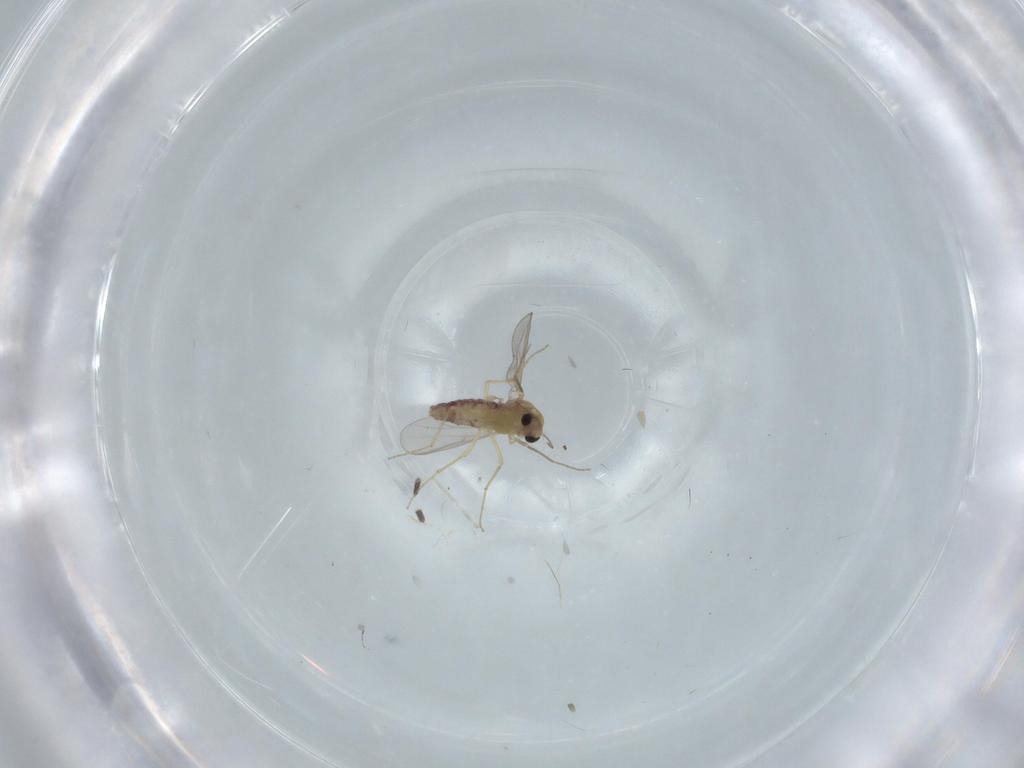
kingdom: Animalia
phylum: Arthropoda
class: Insecta
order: Diptera
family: Chironomidae
